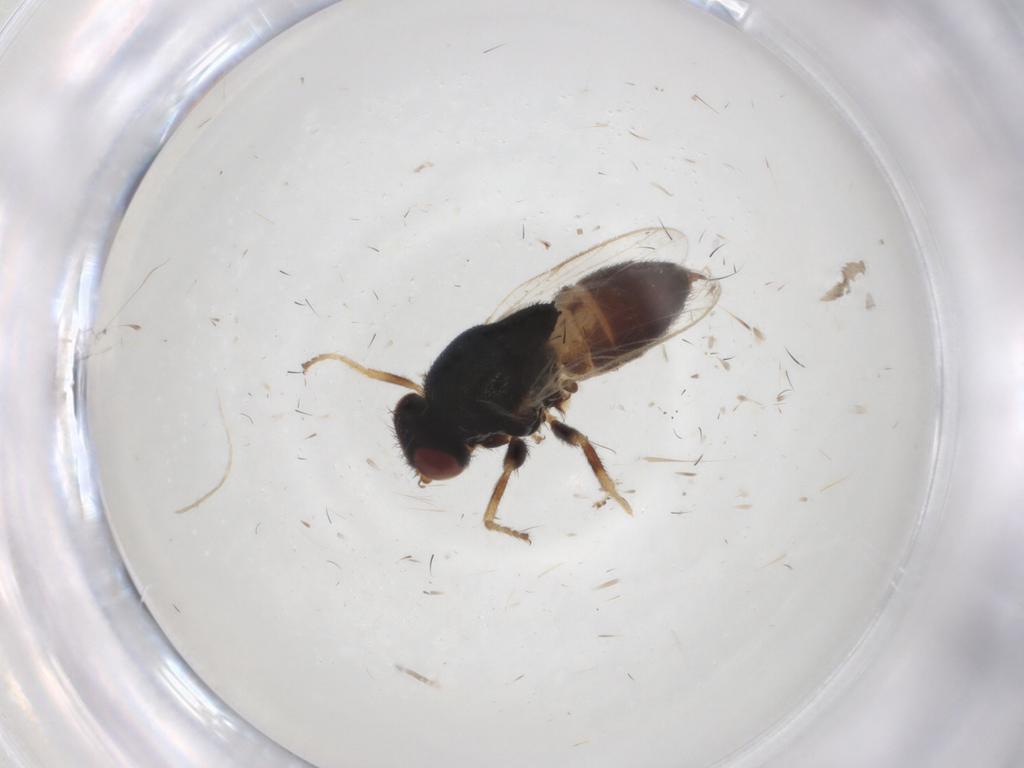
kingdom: Animalia
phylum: Arthropoda
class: Insecta
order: Diptera
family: Chloropidae
